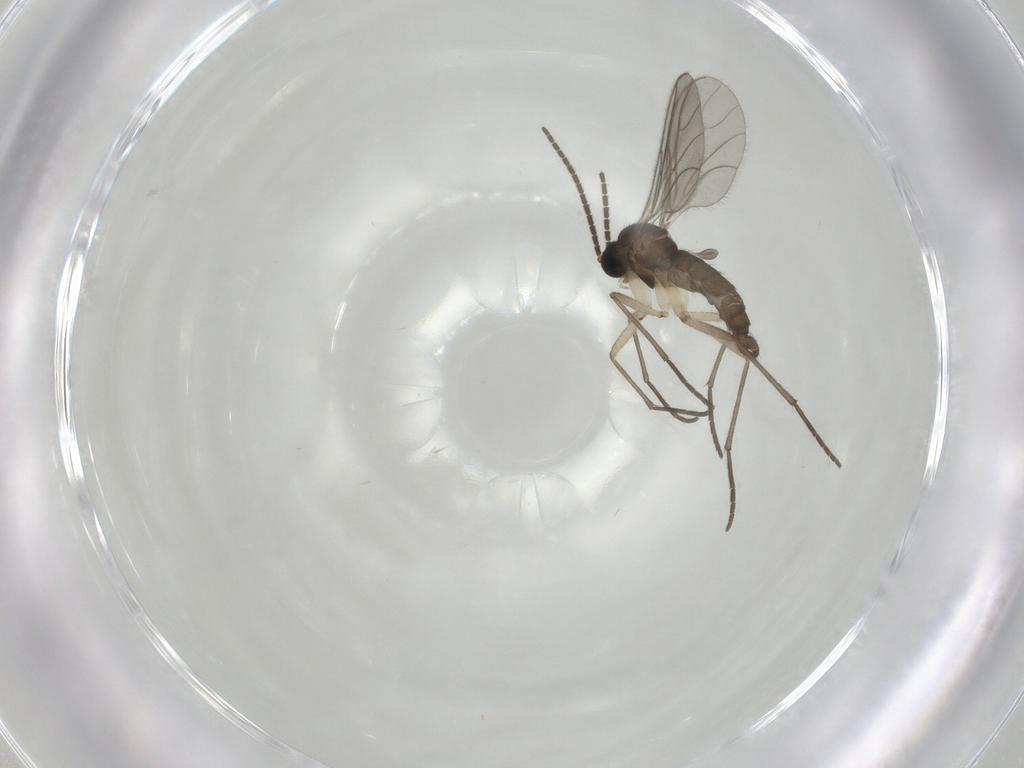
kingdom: Animalia
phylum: Arthropoda
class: Insecta
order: Diptera
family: Sciaridae
